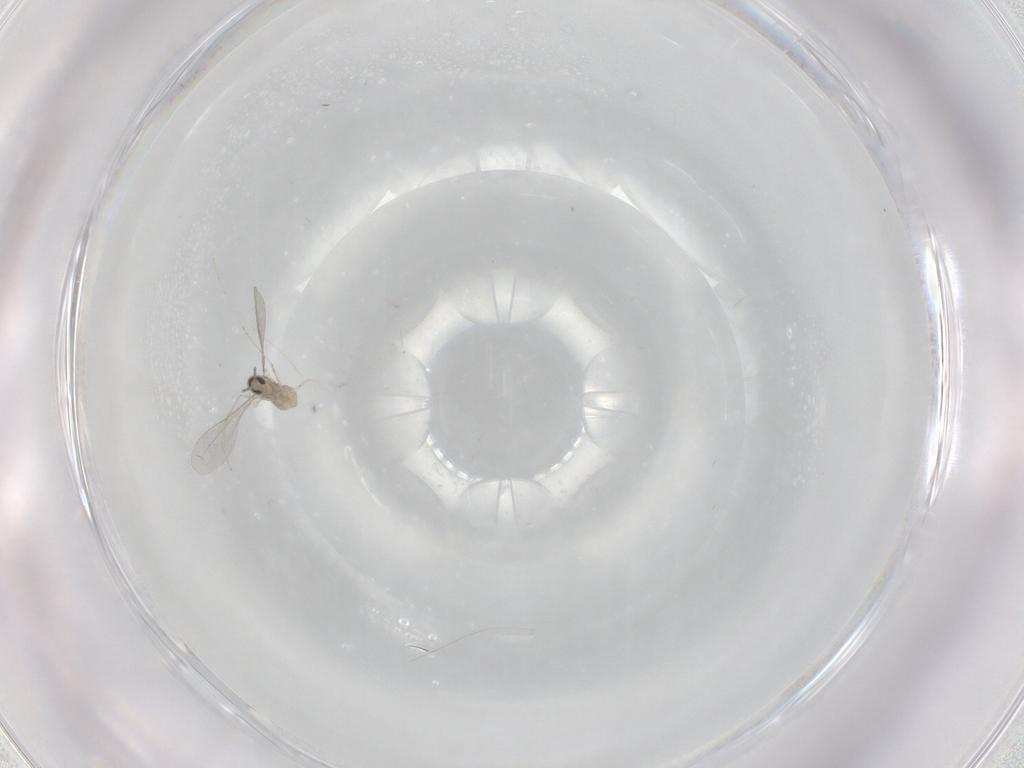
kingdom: Animalia
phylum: Arthropoda
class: Insecta
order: Diptera
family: Cecidomyiidae
